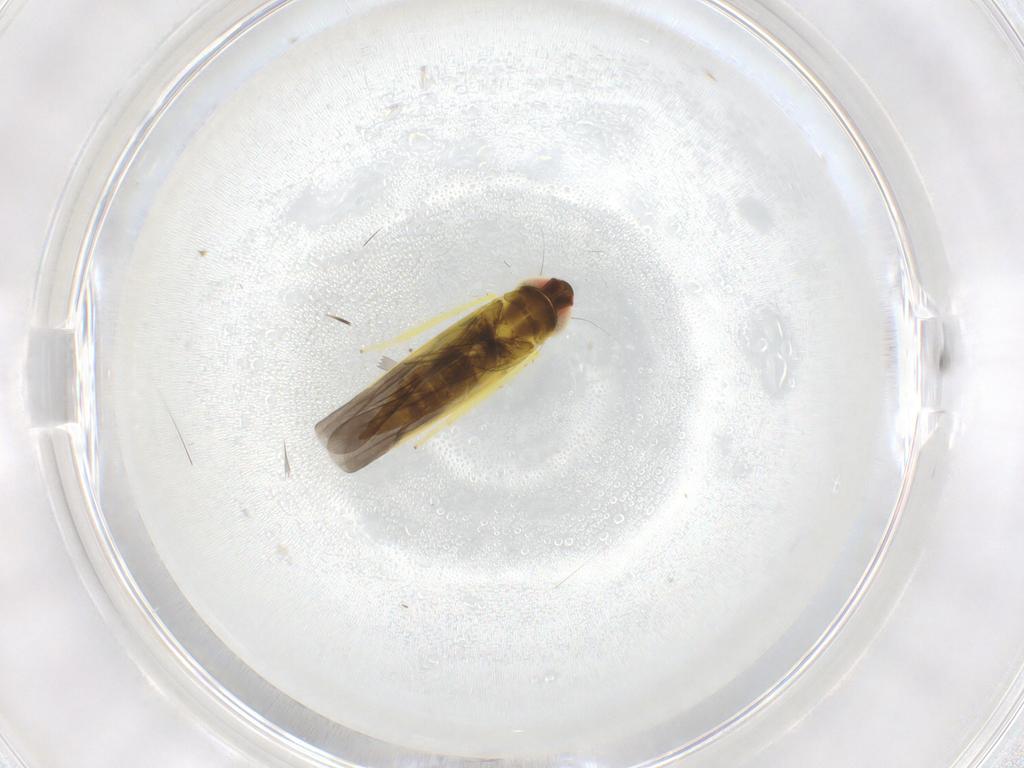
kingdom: Animalia
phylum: Arthropoda
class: Insecta
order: Hemiptera
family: Cicadellidae
